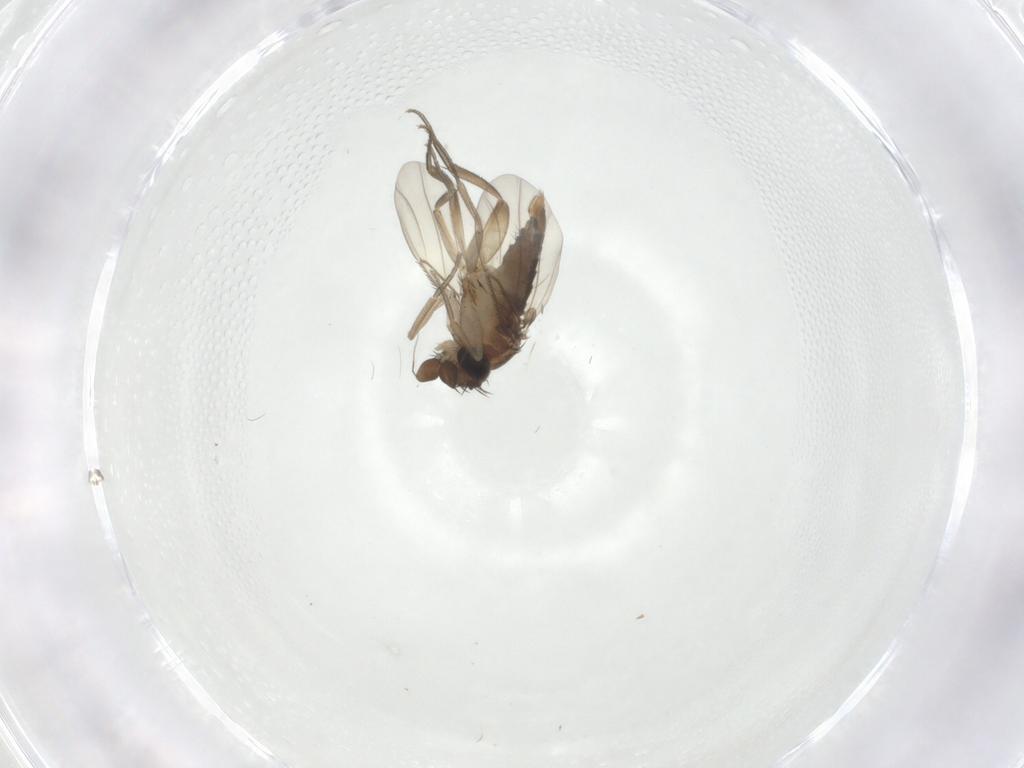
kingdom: Animalia
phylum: Arthropoda
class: Insecta
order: Diptera
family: Phoridae
